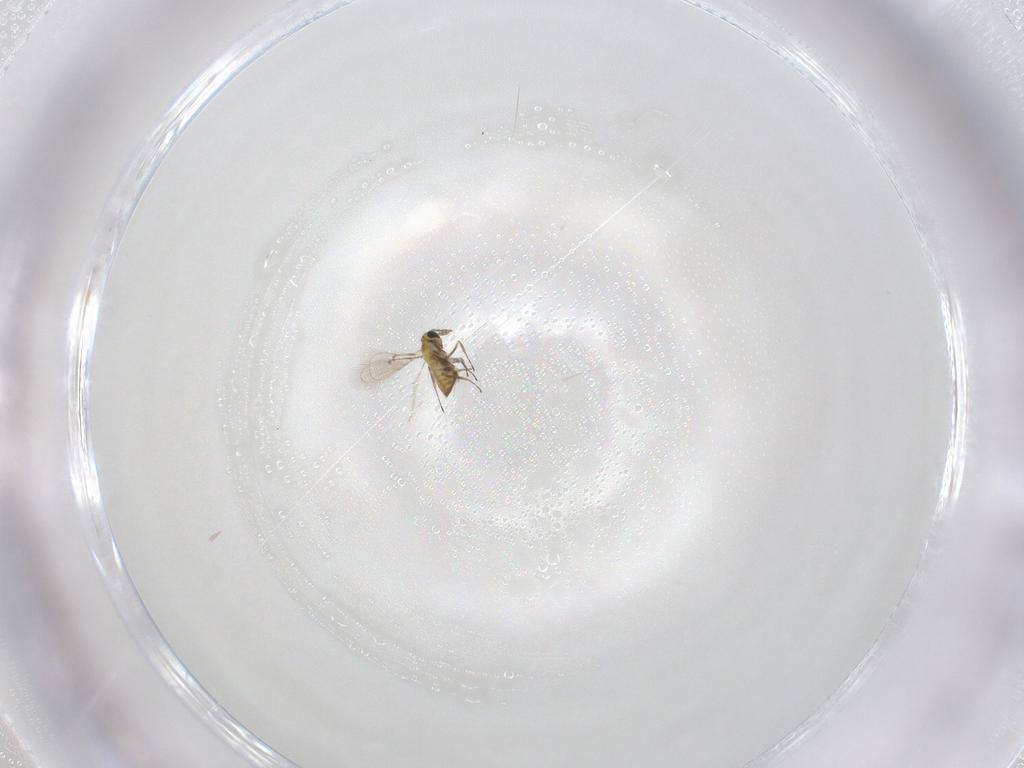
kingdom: Animalia
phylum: Arthropoda
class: Insecta
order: Hymenoptera
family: Trichogrammatidae
